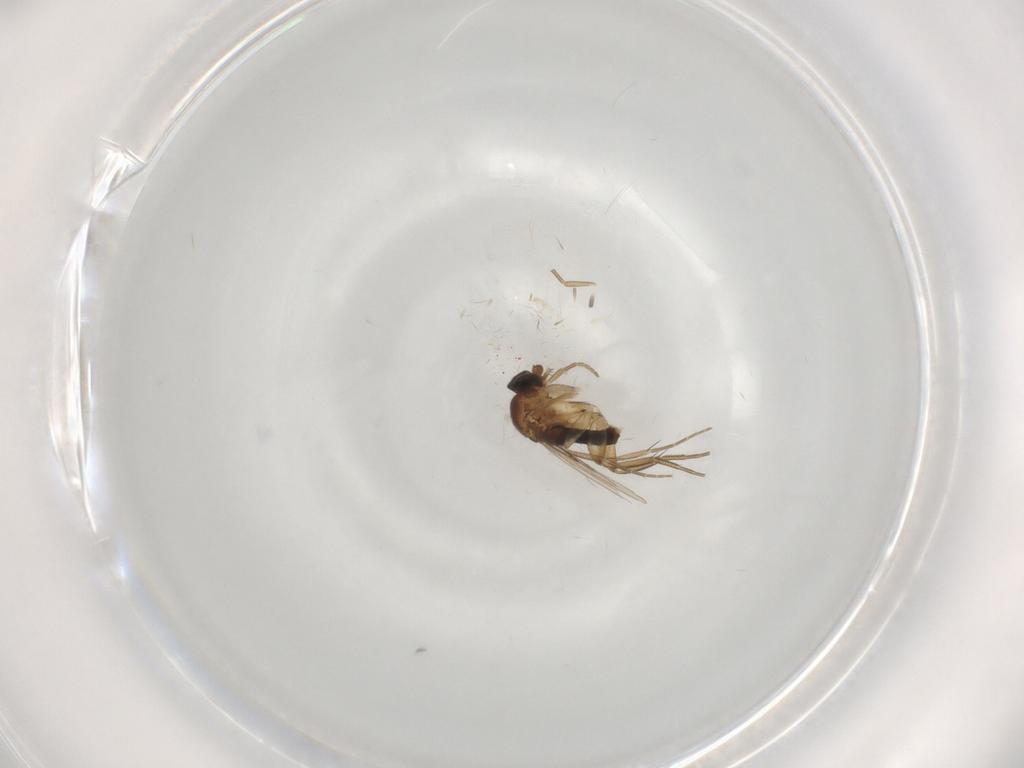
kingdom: Animalia
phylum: Arthropoda
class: Insecta
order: Diptera
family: Phoridae
